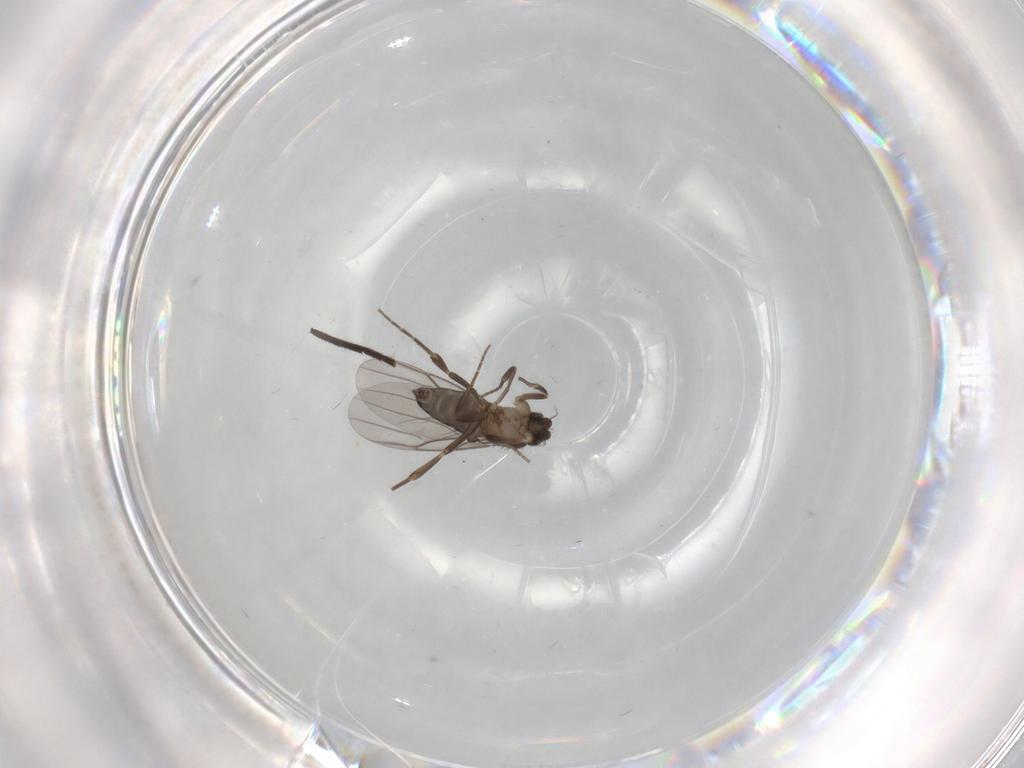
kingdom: Animalia
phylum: Arthropoda
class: Insecta
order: Diptera
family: Sciaridae
